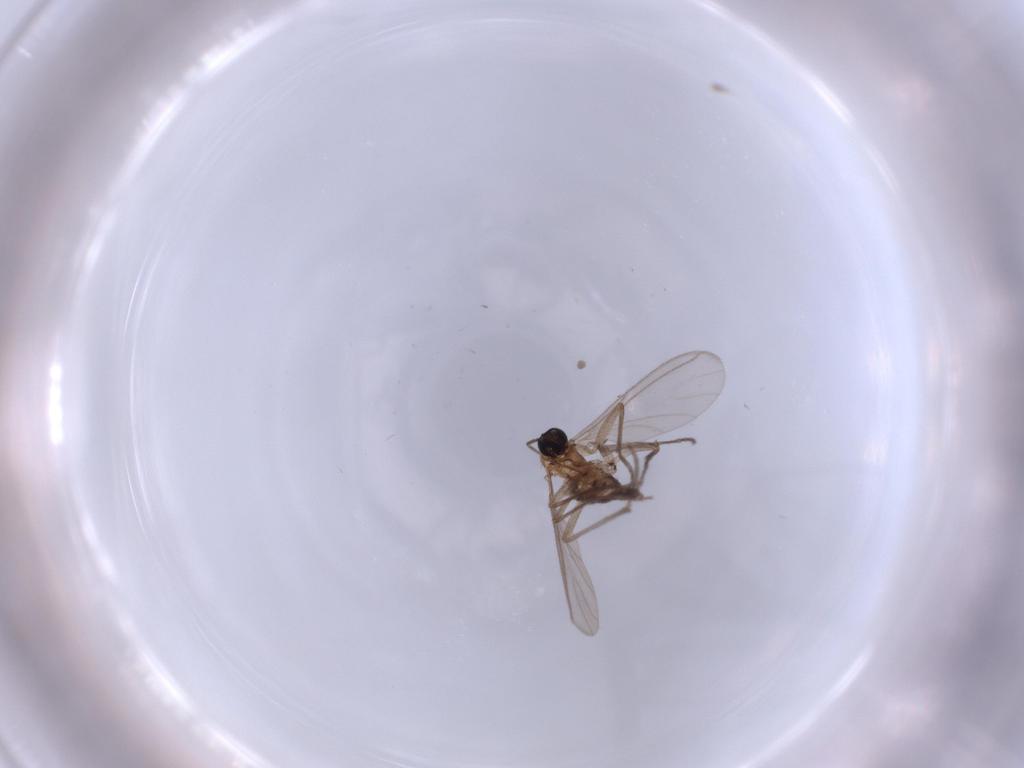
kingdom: Animalia
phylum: Arthropoda
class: Insecta
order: Diptera
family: Sciaridae
